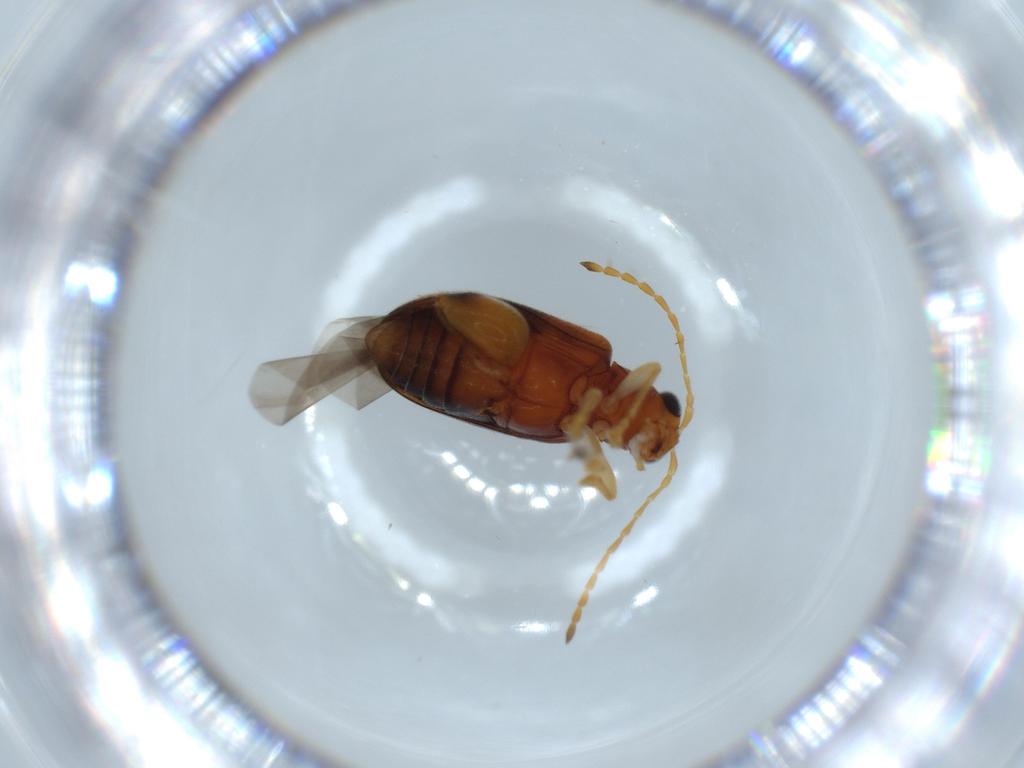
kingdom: Animalia
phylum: Arthropoda
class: Insecta
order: Coleoptera
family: Chrysomelidae
